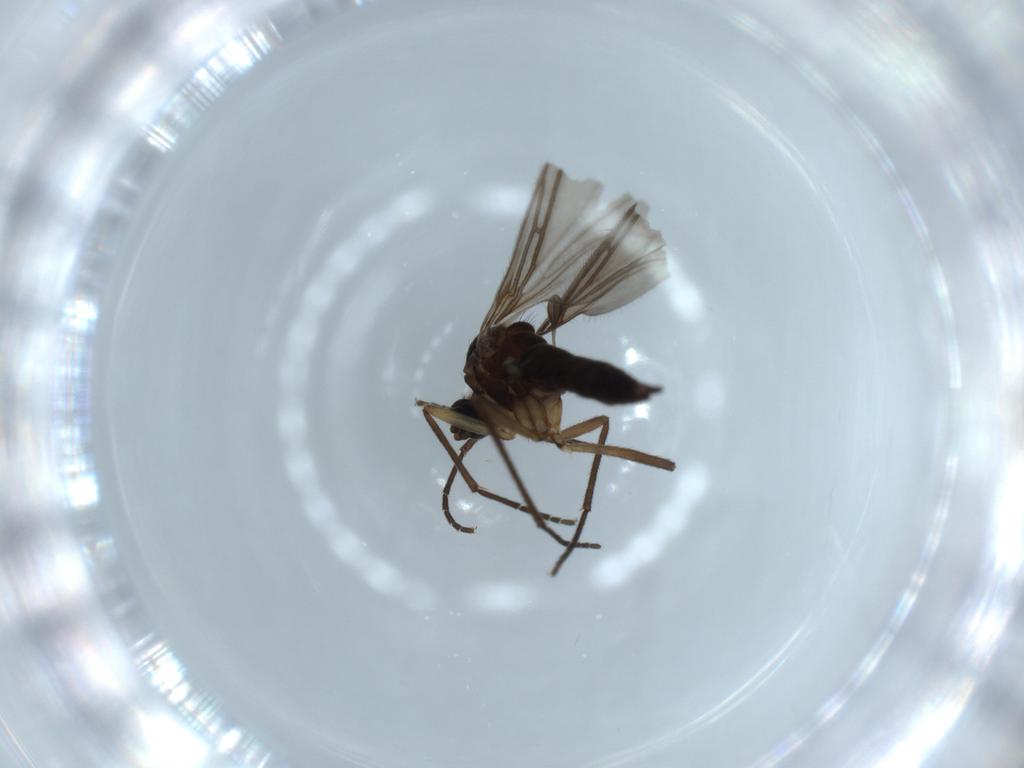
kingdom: Animalia
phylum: Arthropoda
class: Insecta
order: Diptera
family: Sciaridae
